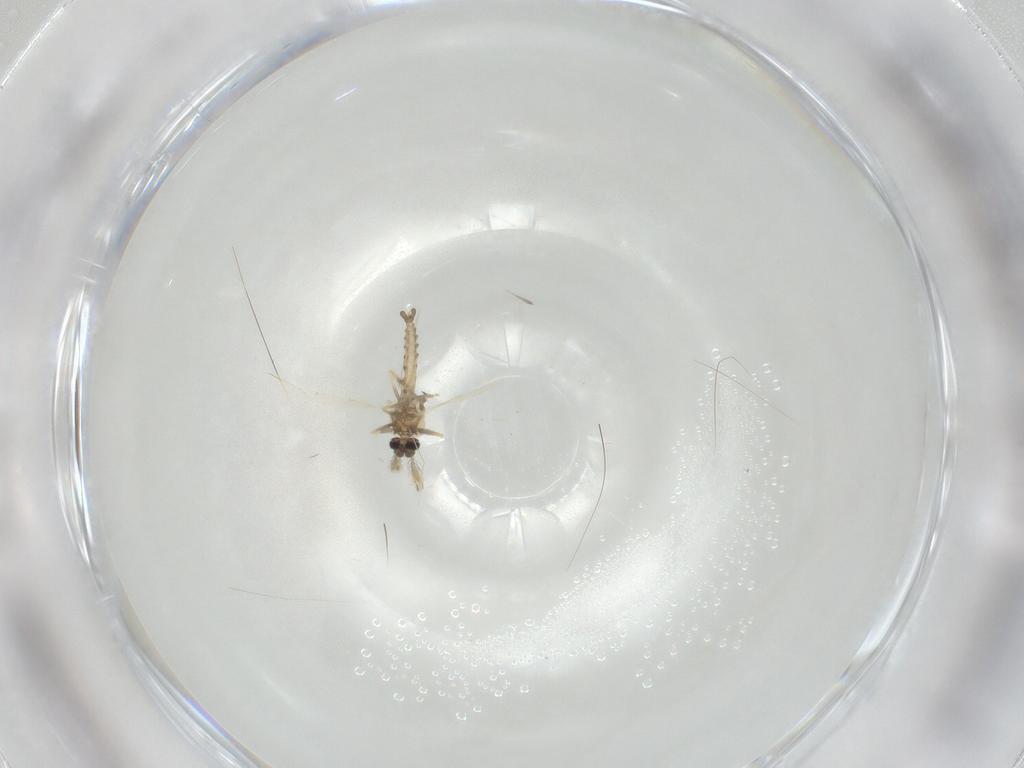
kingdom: Animalia
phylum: Arthropoda
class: Insecta
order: Diptera
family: Ceratopogonidae
